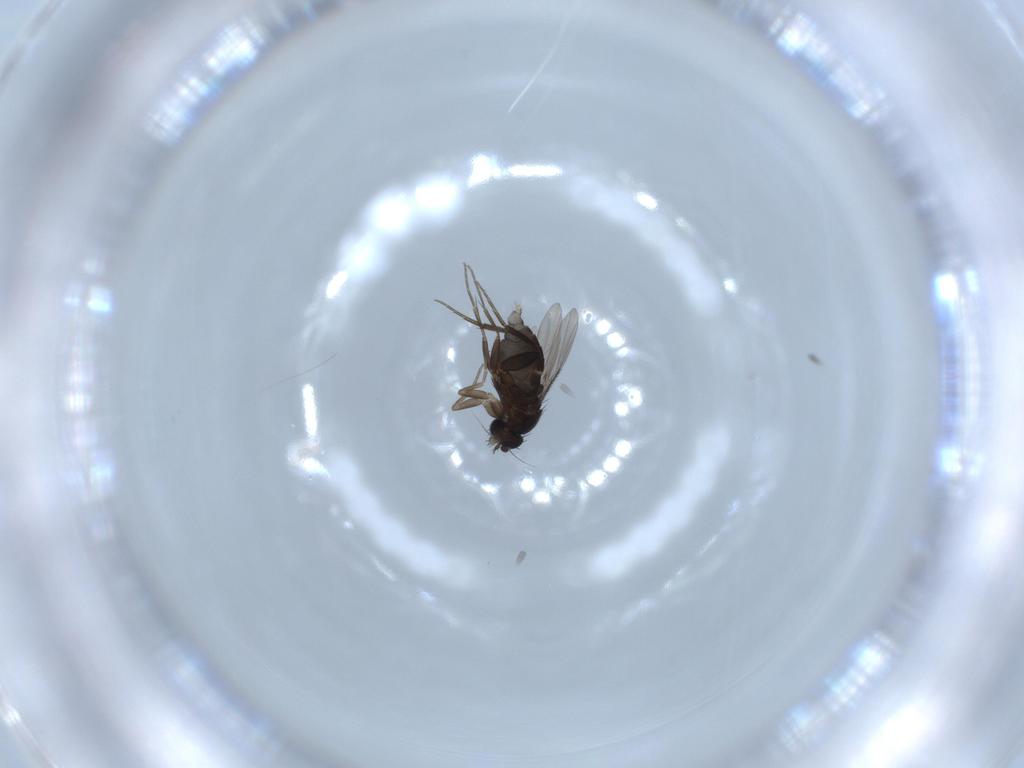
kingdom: Animalia
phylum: Arthropoda
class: Insecta
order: Diptera
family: Phoridae
